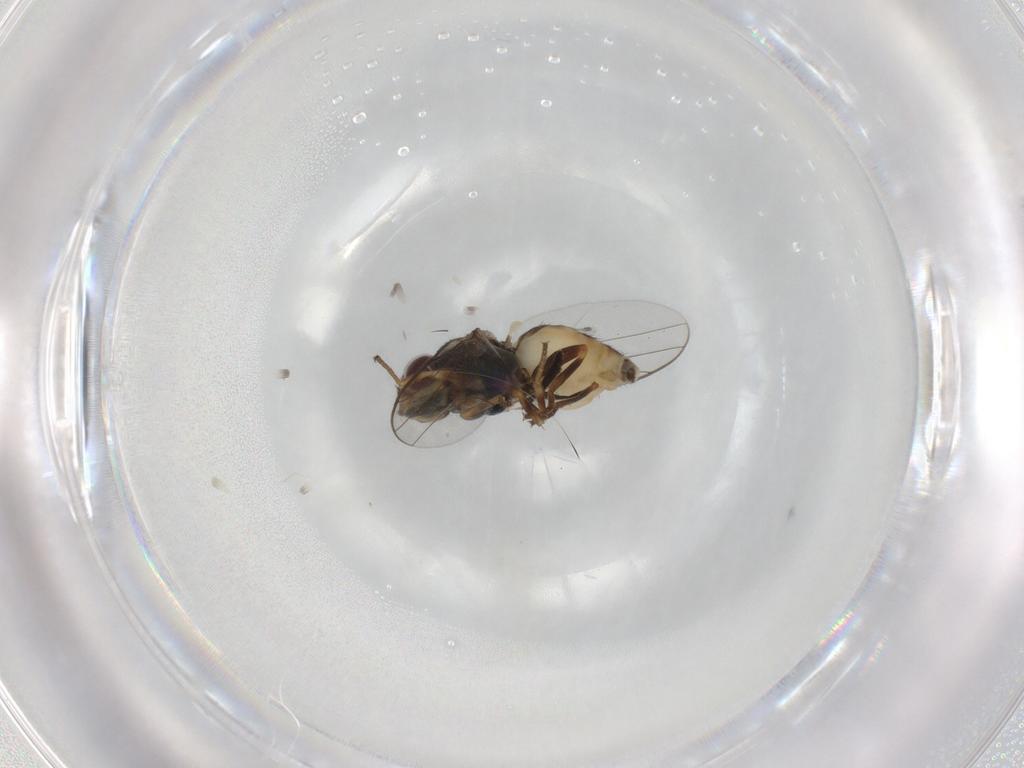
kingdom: Animalia
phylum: Arthropoda
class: Insecta
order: Diptera
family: Chloropidae
